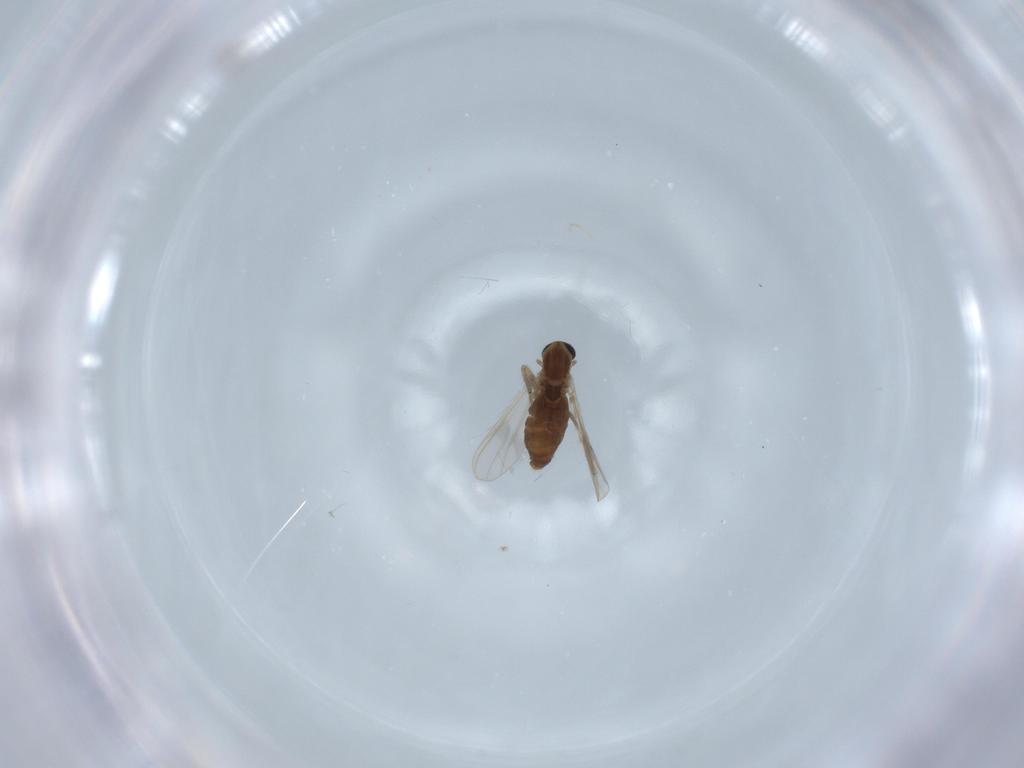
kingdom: Animalia
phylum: Arthropoda
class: Insecta
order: Diptera
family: Chironomidae
